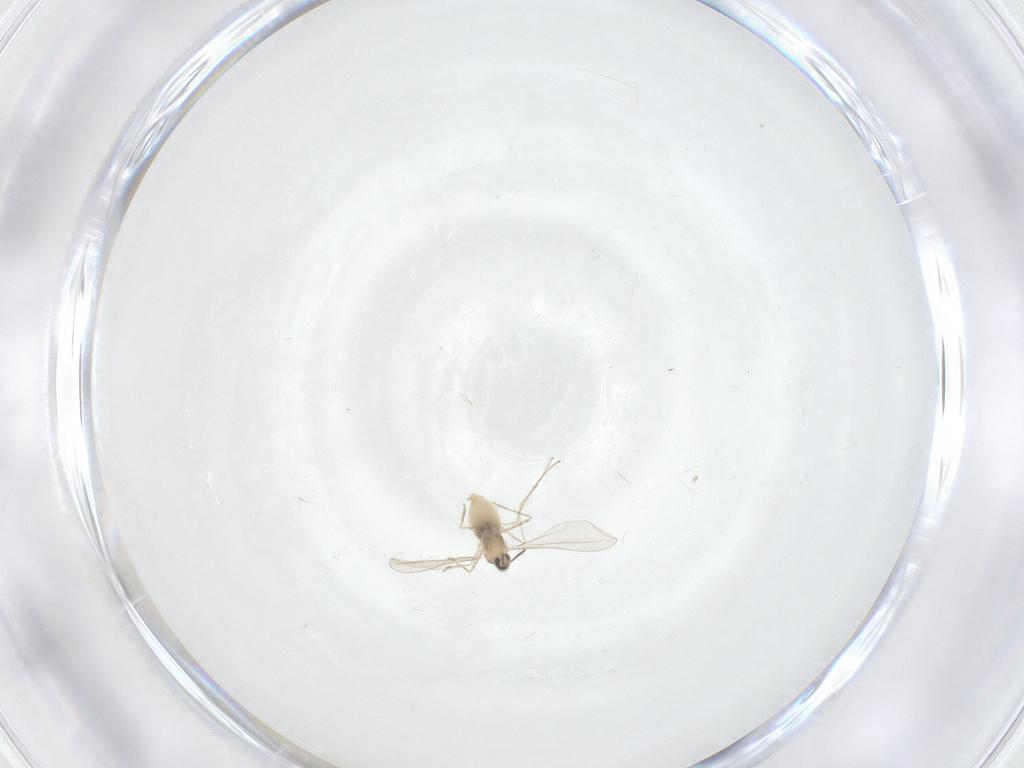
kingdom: Animalia
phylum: Arthropoda
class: Insecta
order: Diptera
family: Cecidomyiidae
